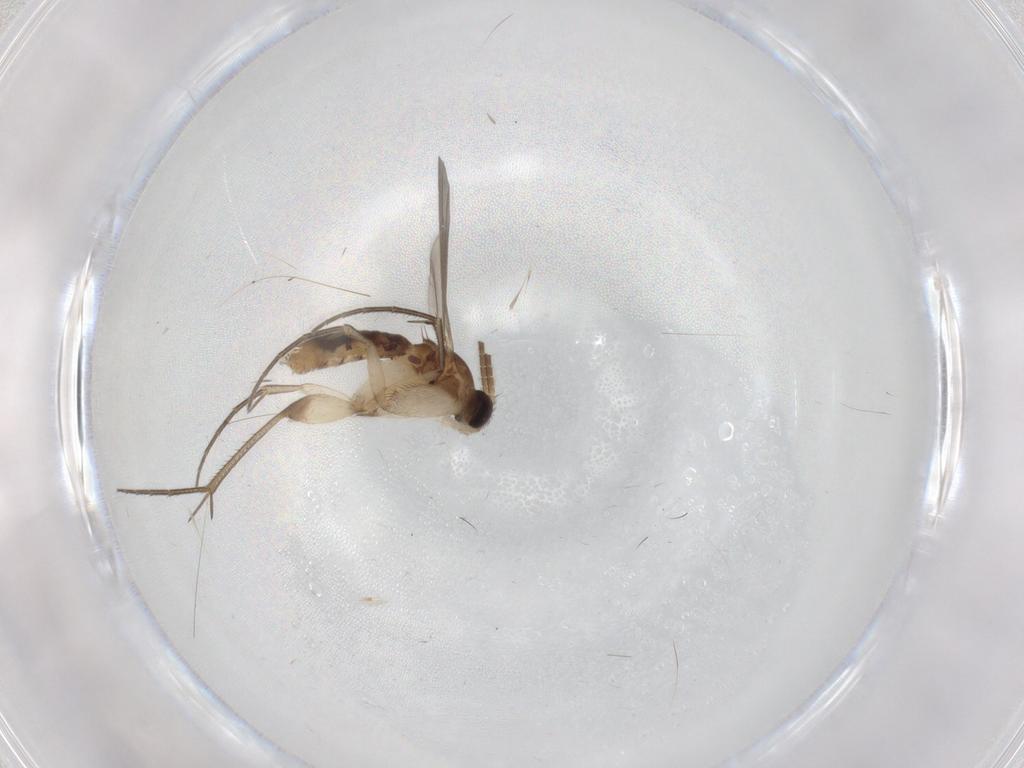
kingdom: Animalia
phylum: Arthropoda
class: Insecta
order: Diptera
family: Mycetophilidae
